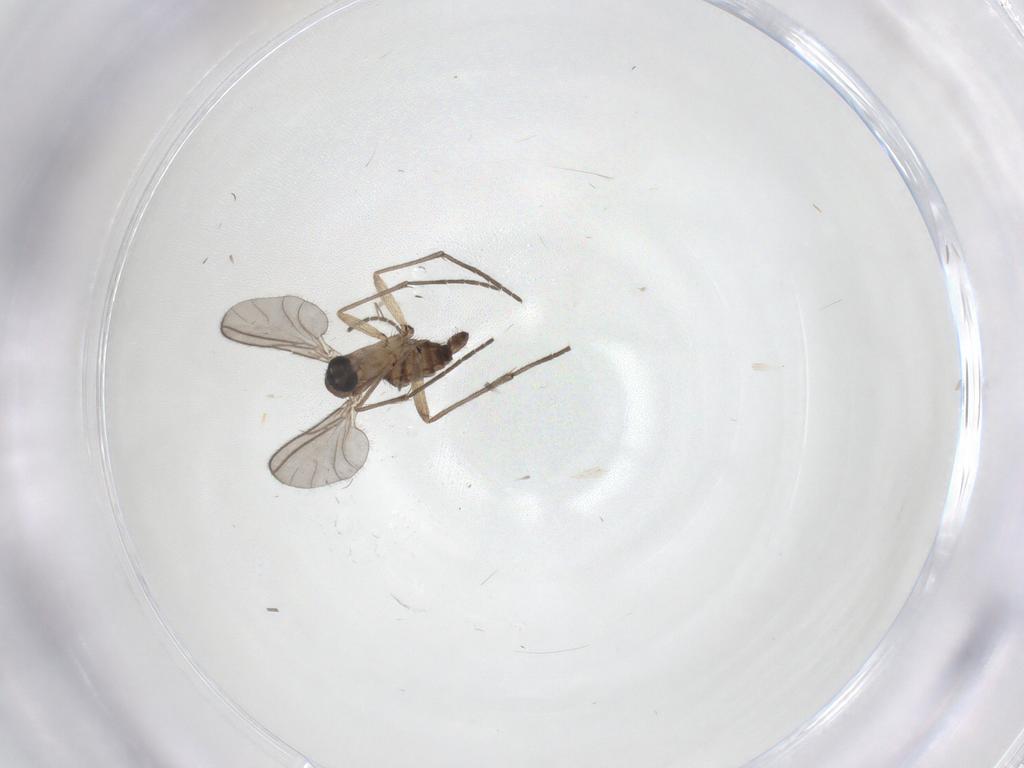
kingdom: Animalia
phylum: Arthropoda
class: Insecta
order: Diptera
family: Sciaridae
